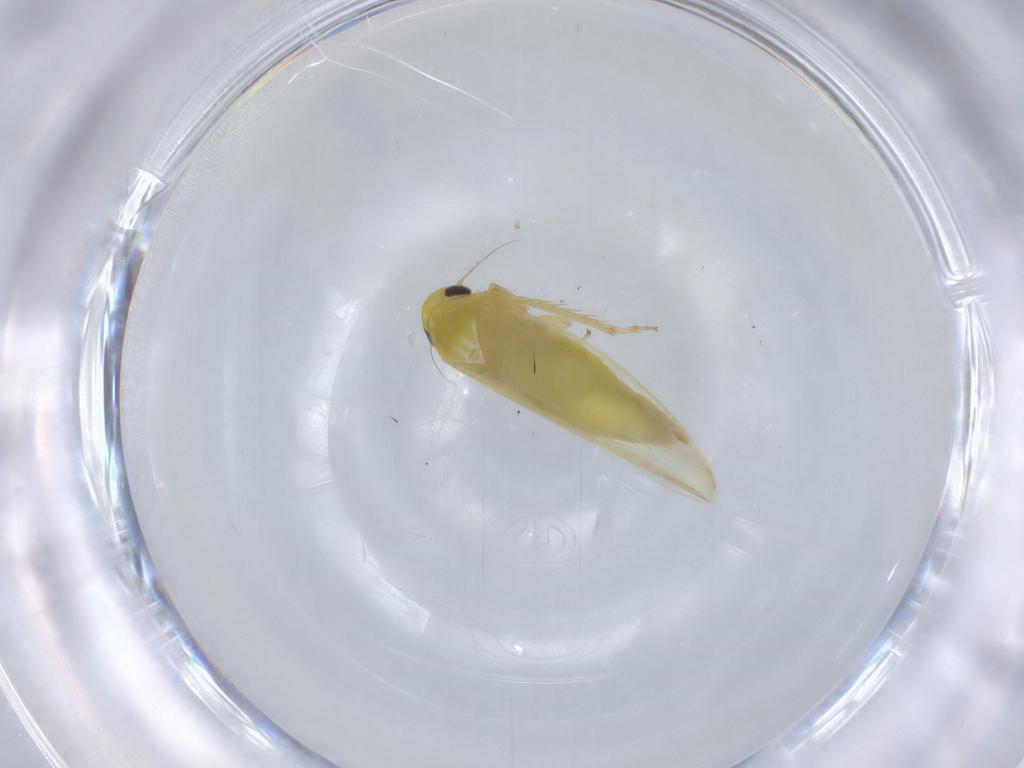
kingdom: Animalia
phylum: Arthropoda
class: Insecta
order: Hemiptera
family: Cicadellidae
